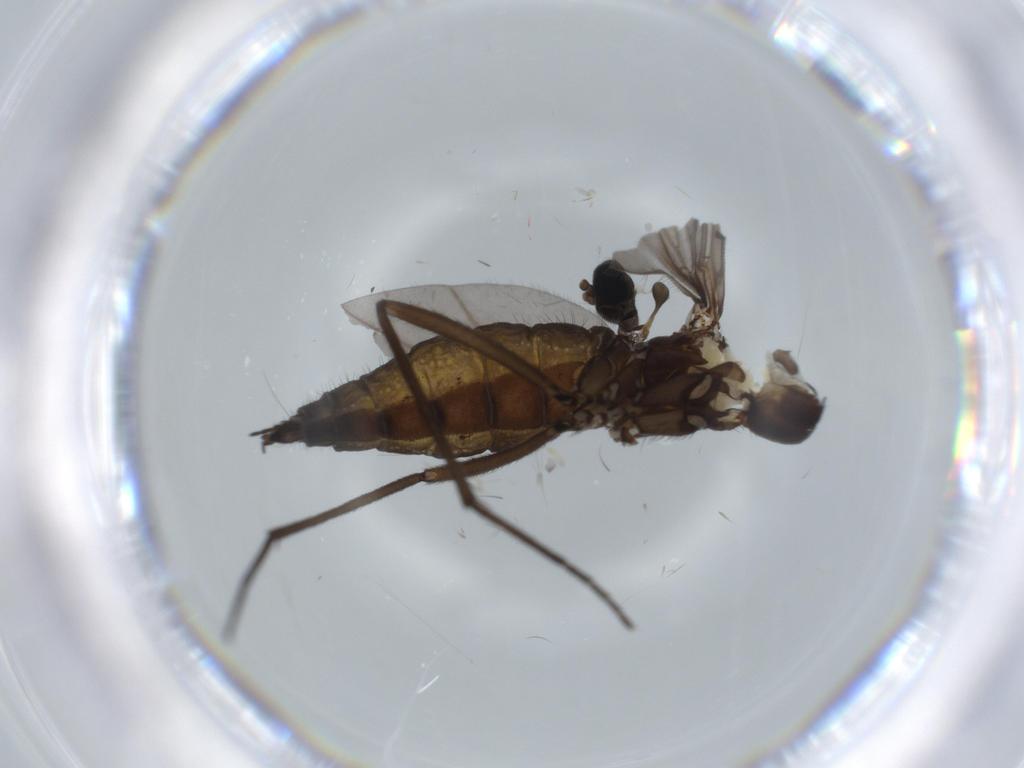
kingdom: Animalia
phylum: Arthropoda
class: Insecta
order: Diptera
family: Sciaridae
